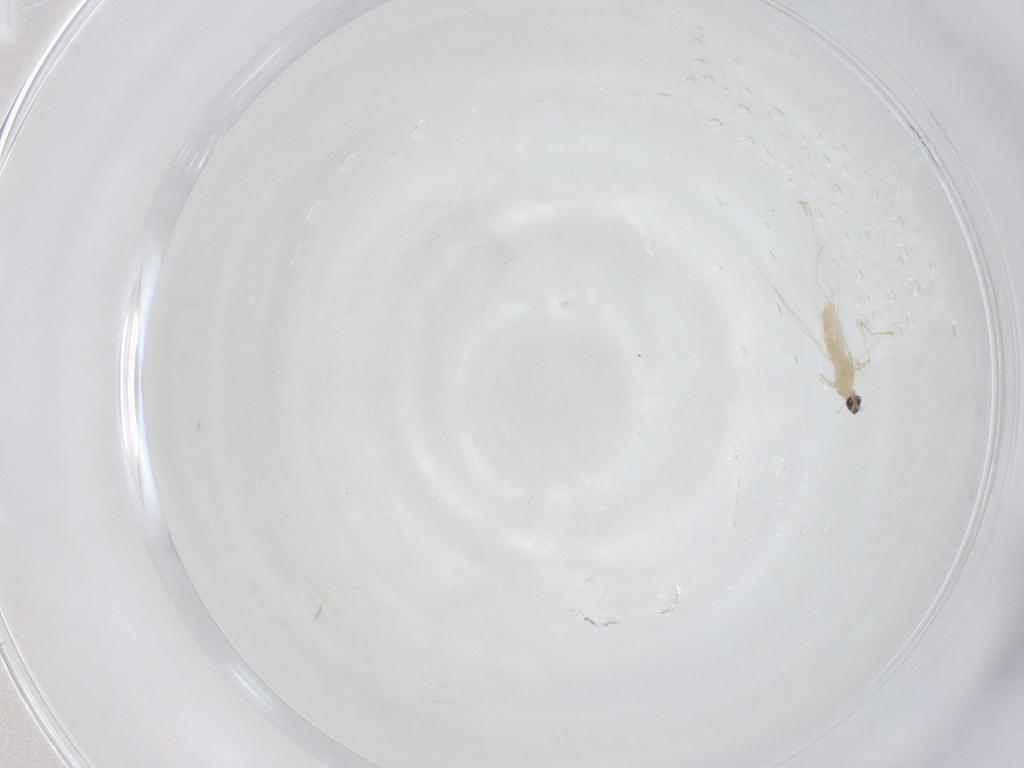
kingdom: Animalia
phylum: Arthropoda
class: Insecta
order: Diptera
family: Cecidomyiidae
